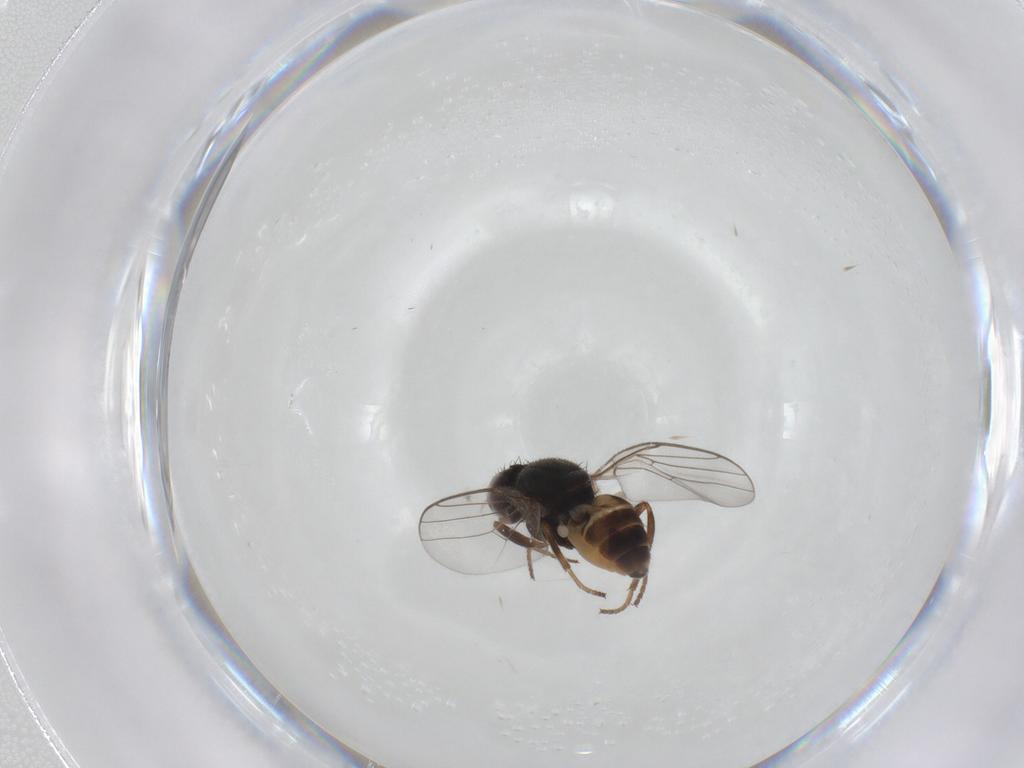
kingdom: Animalia
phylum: Arthropoda
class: Insecta
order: Diptera
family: Chloropidae
